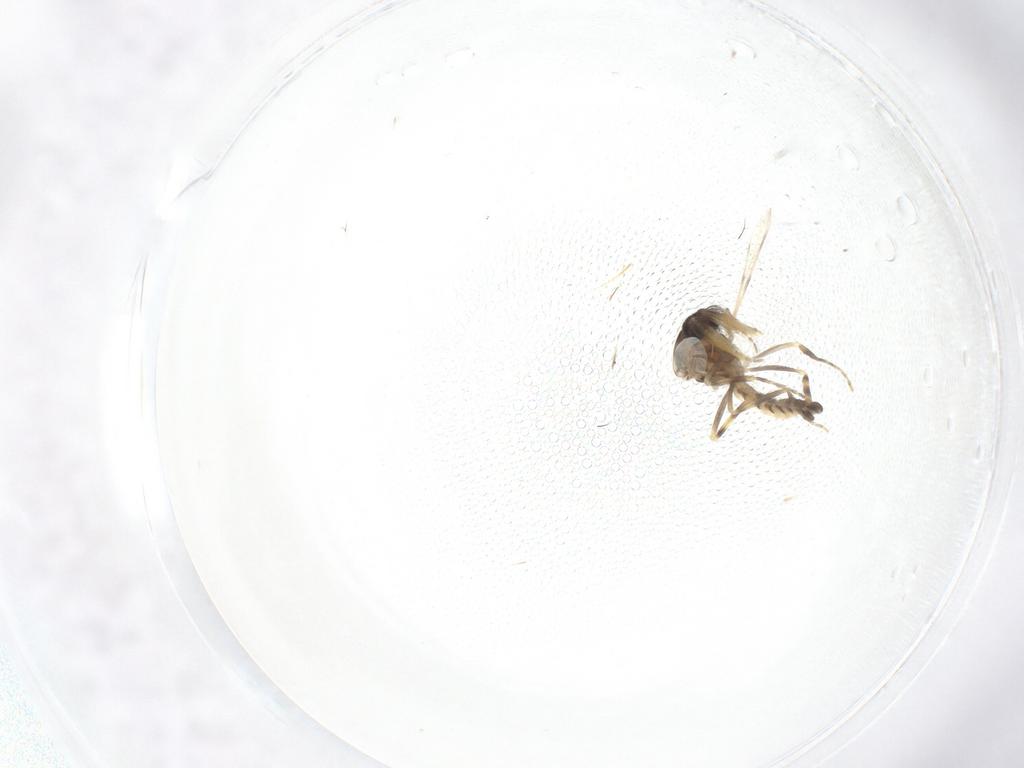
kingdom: Animalia
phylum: Arthropoda
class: Insecta
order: Diptera
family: Ceratopogonidae
